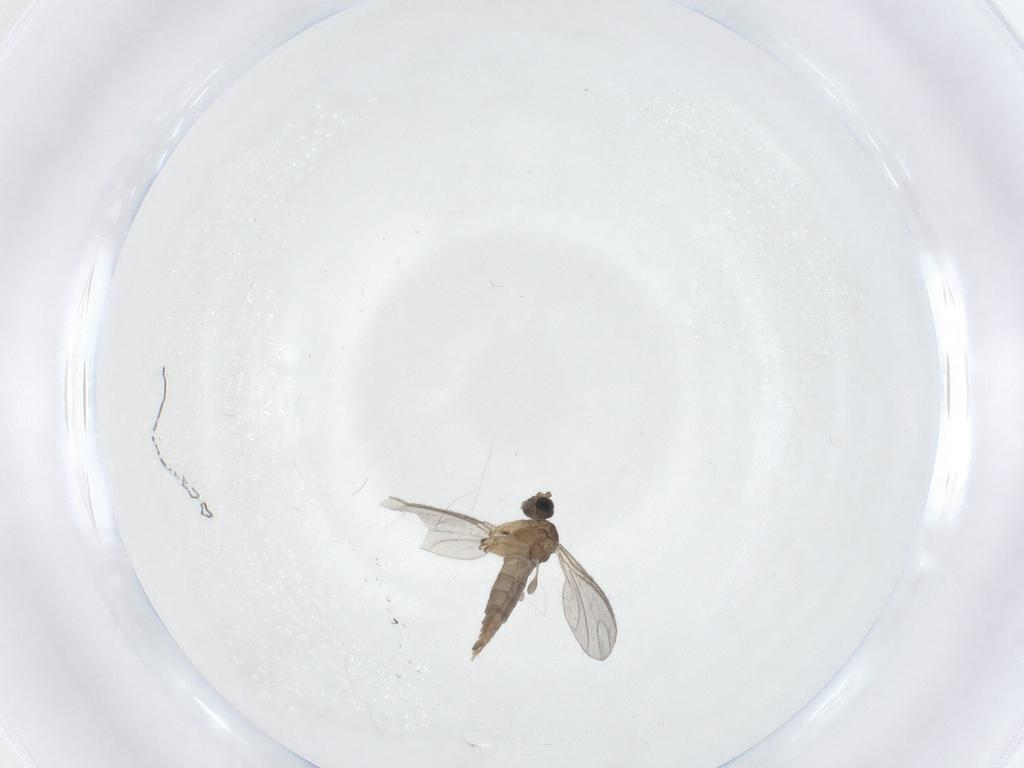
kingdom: Animalia
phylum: Arthropoda
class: Insecta
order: Diptera
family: Sciaridae
